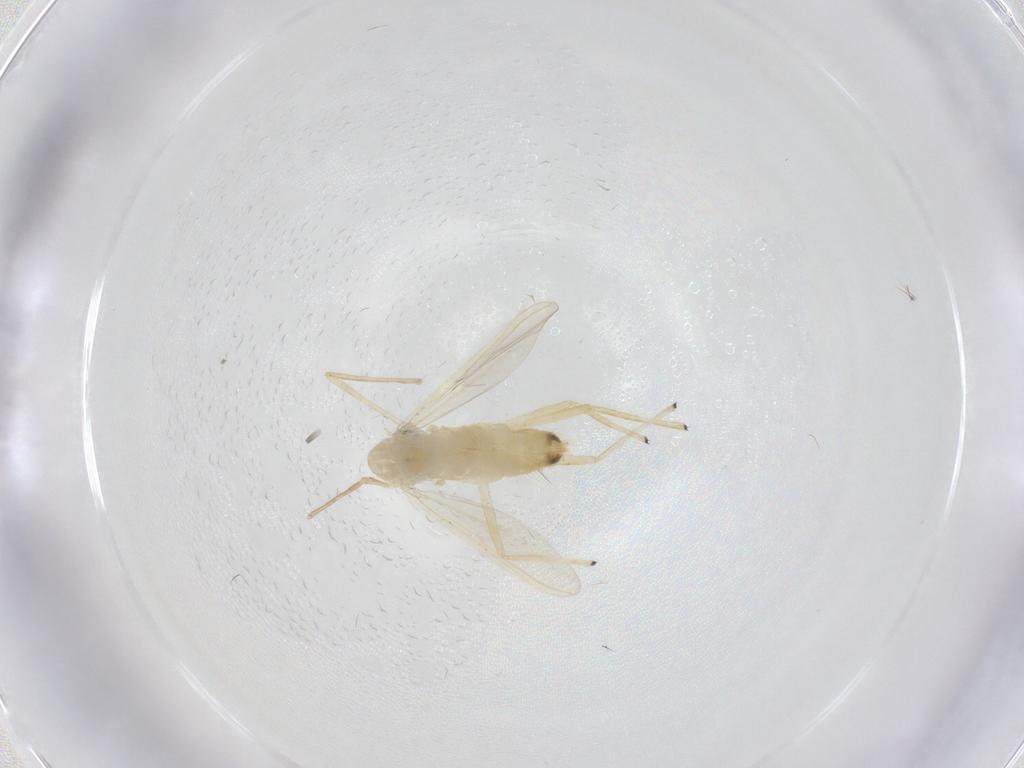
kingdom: Animalia
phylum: Arthropoda
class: Insecta
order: Diptera
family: Chironomidae
